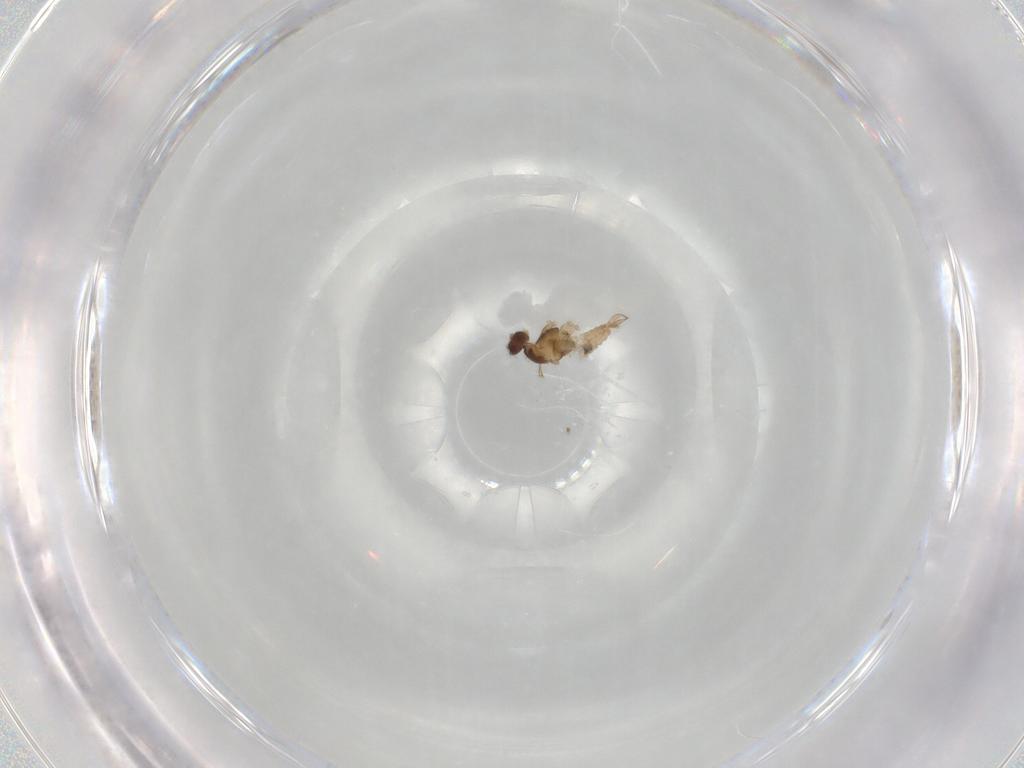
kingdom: Animalia
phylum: Arthropoda
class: Insecta
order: Diptera
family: Cecidomyiidae
